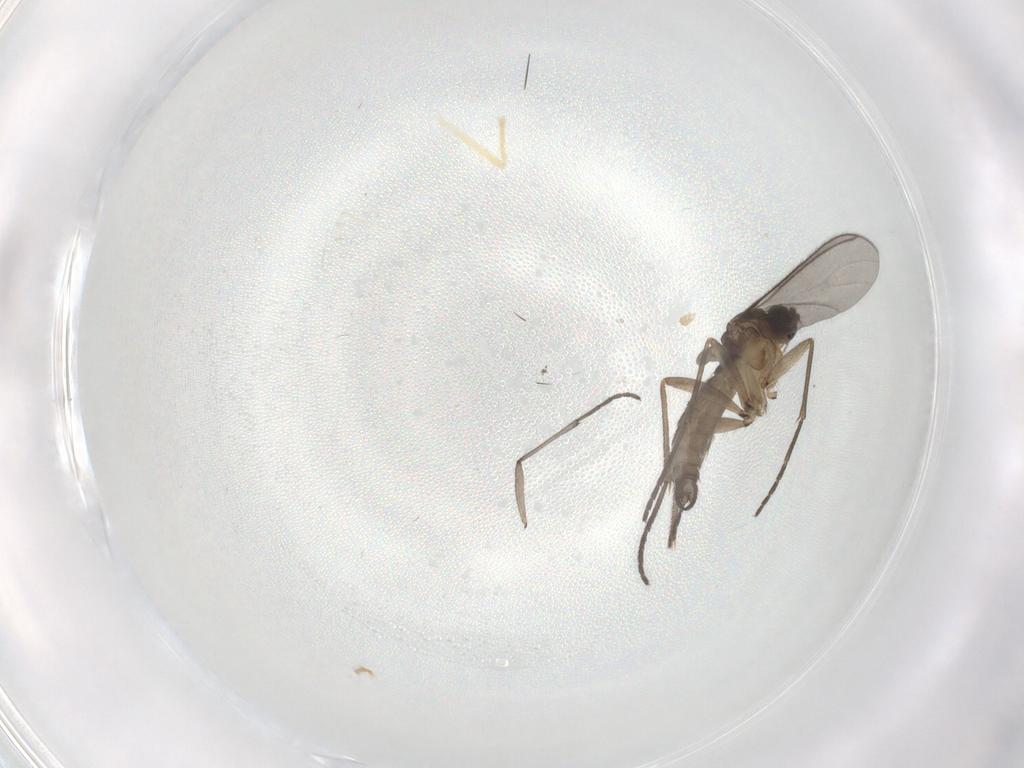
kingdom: Animalia
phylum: Arthropoda
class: Insecta
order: Diptera
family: Sciaridae
